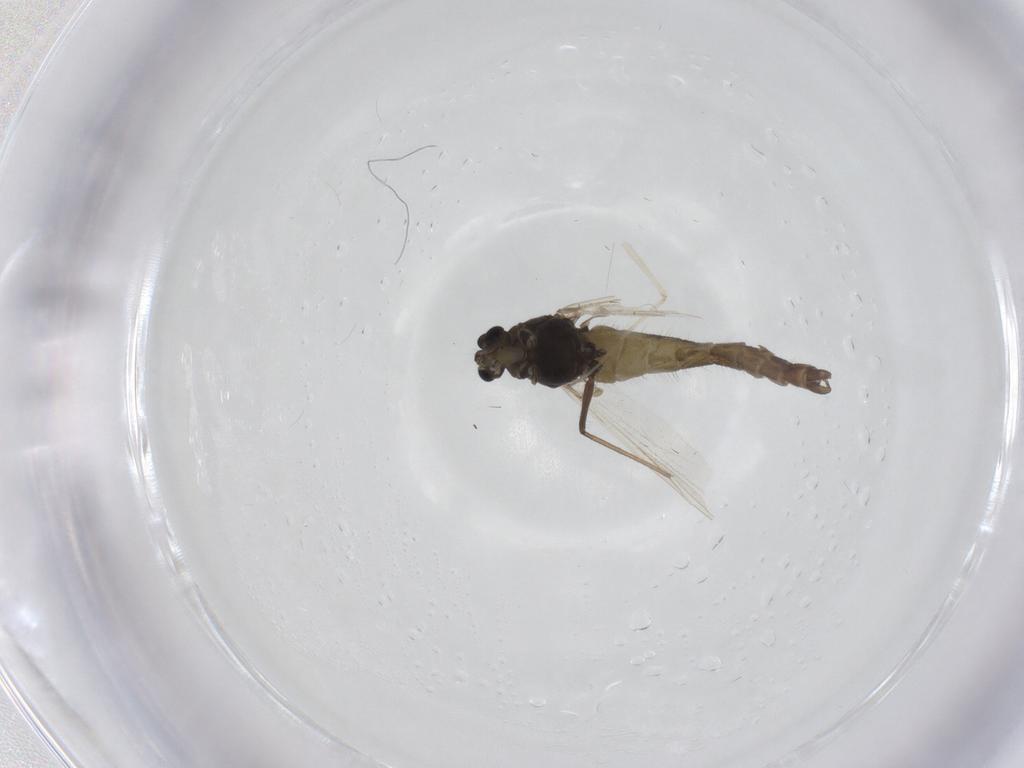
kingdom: Animalia
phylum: Arthropoda
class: Insecta
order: Diptera
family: Chironomidae
